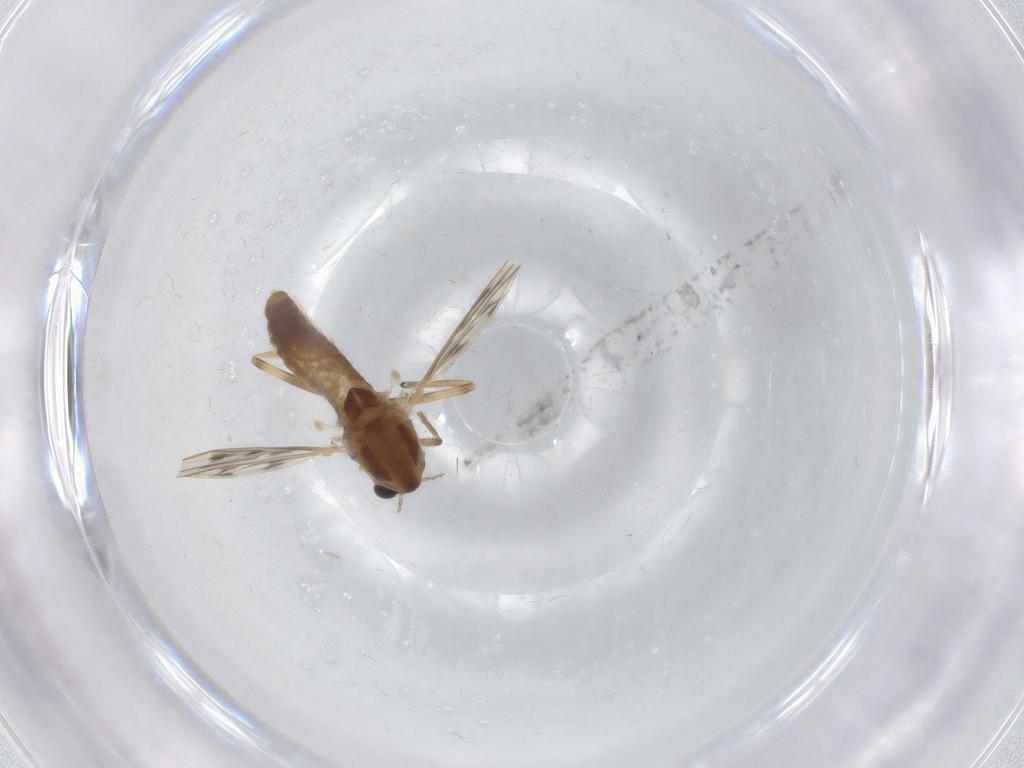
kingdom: Animalia
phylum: Arthropoda
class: Insecta
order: Diptera
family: Chironomidae
